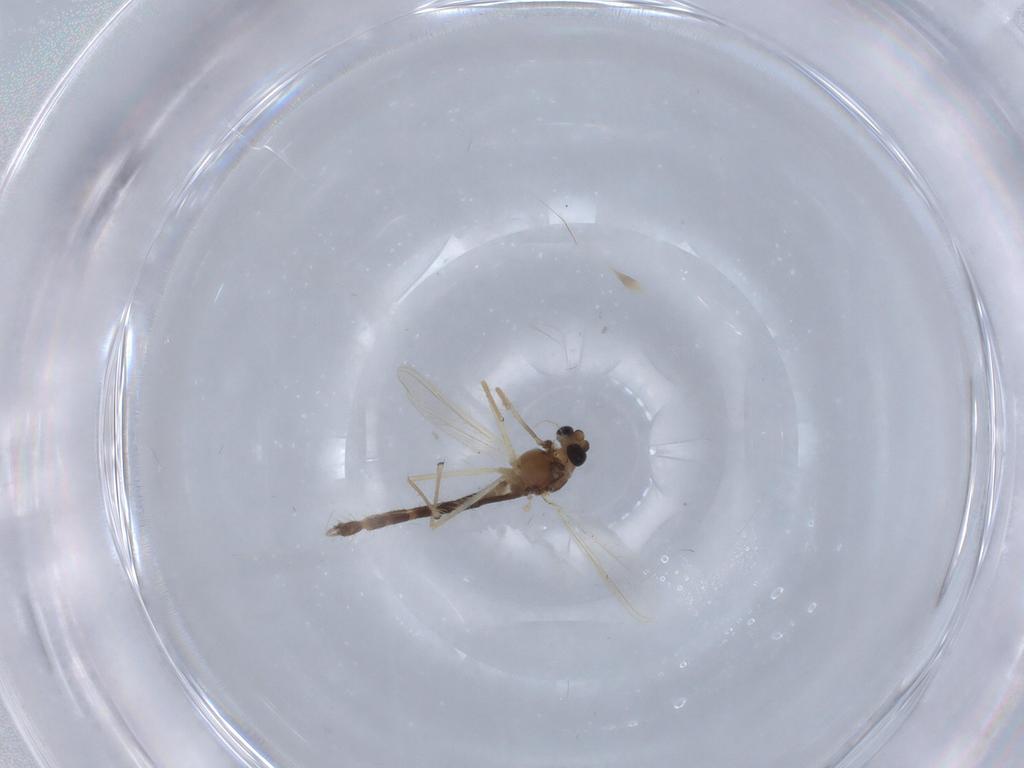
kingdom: Animalia
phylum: Arthropoda
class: Insecta
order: Diptera
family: Chironomidae
